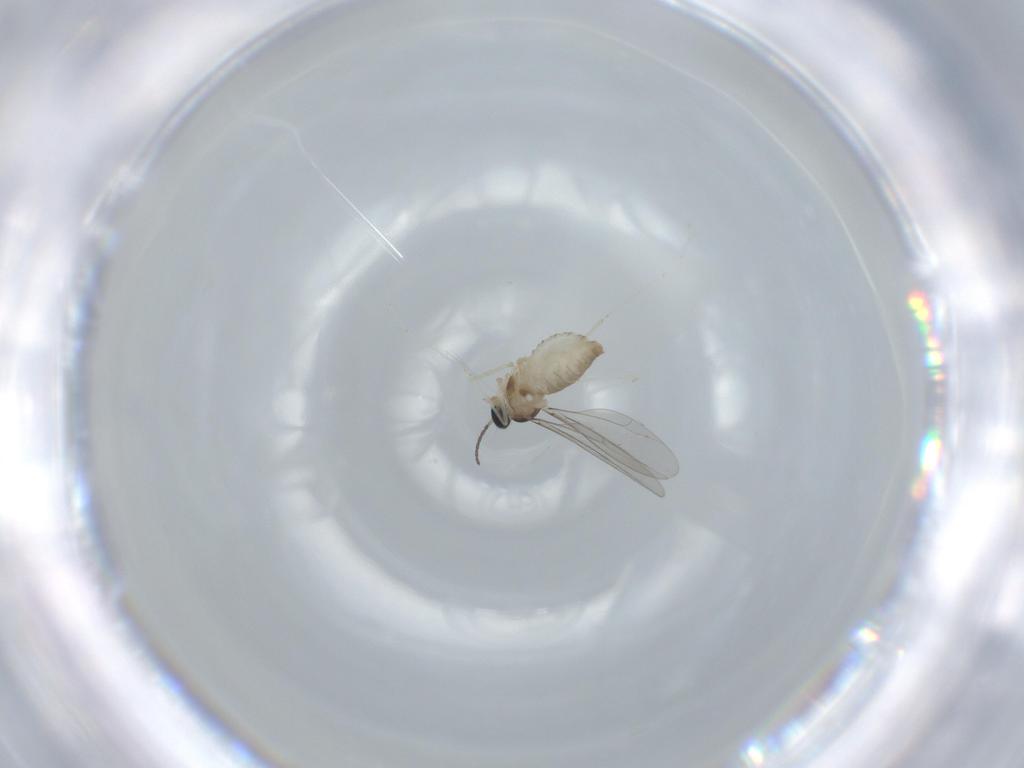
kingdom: Animalia
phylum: Arthropoda
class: Insecta
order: Diptera
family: Cecidomyiidae
